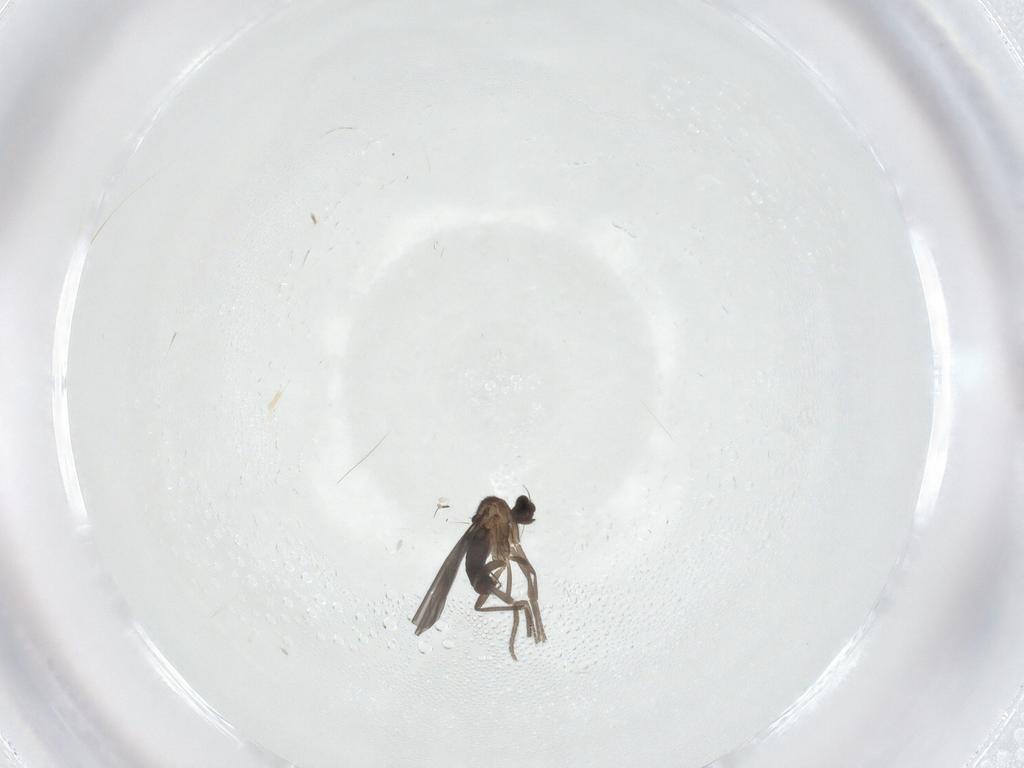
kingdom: Animalia
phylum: Arthropoda
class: Insecta
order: Diptera
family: Phoridae
